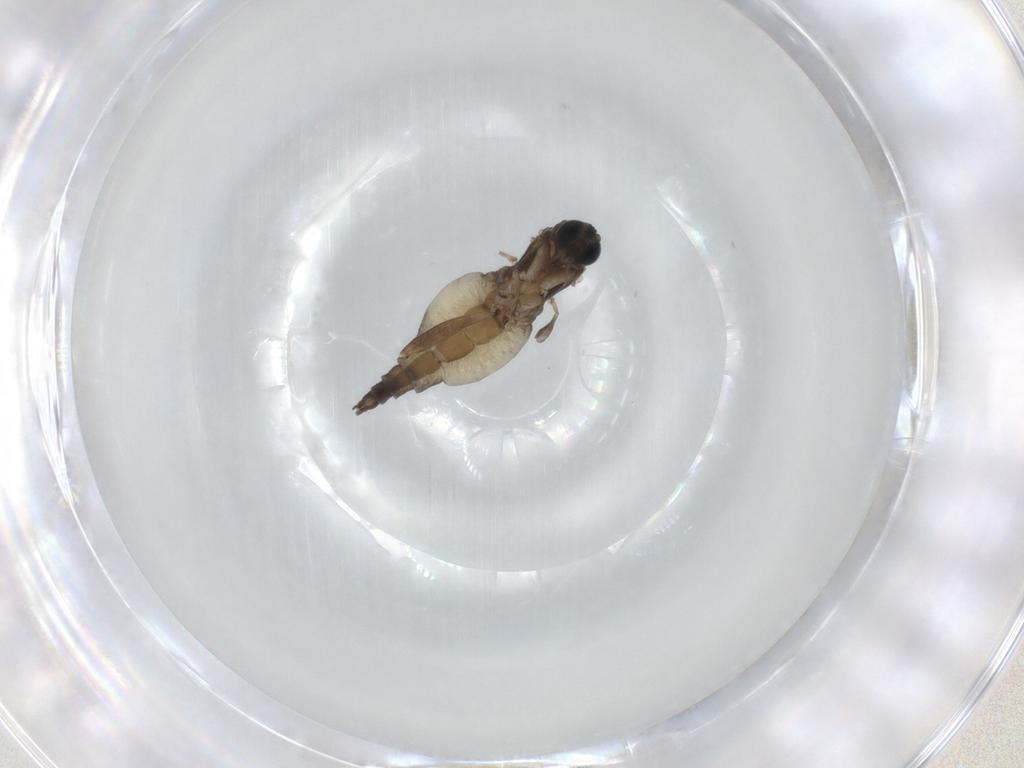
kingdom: Animalia
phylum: Arthropoda
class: Insecta
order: Diptera
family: Sciaridae
